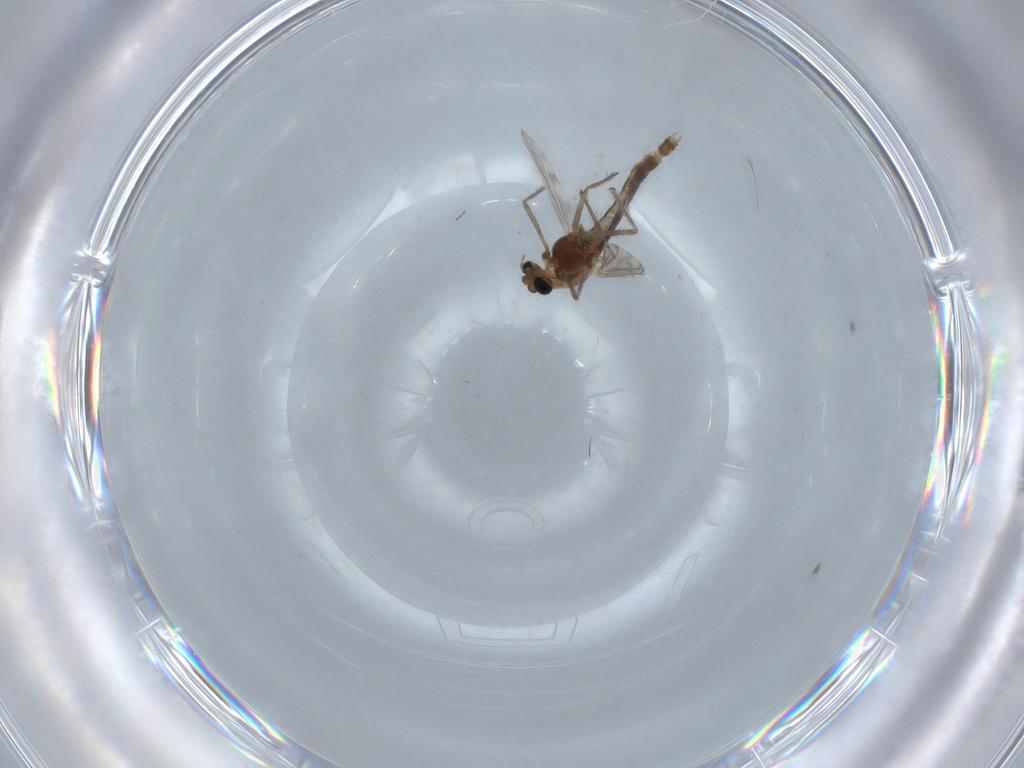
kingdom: Animalia
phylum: Arthropoda
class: Insecta
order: Diptera
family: Chironomidae
